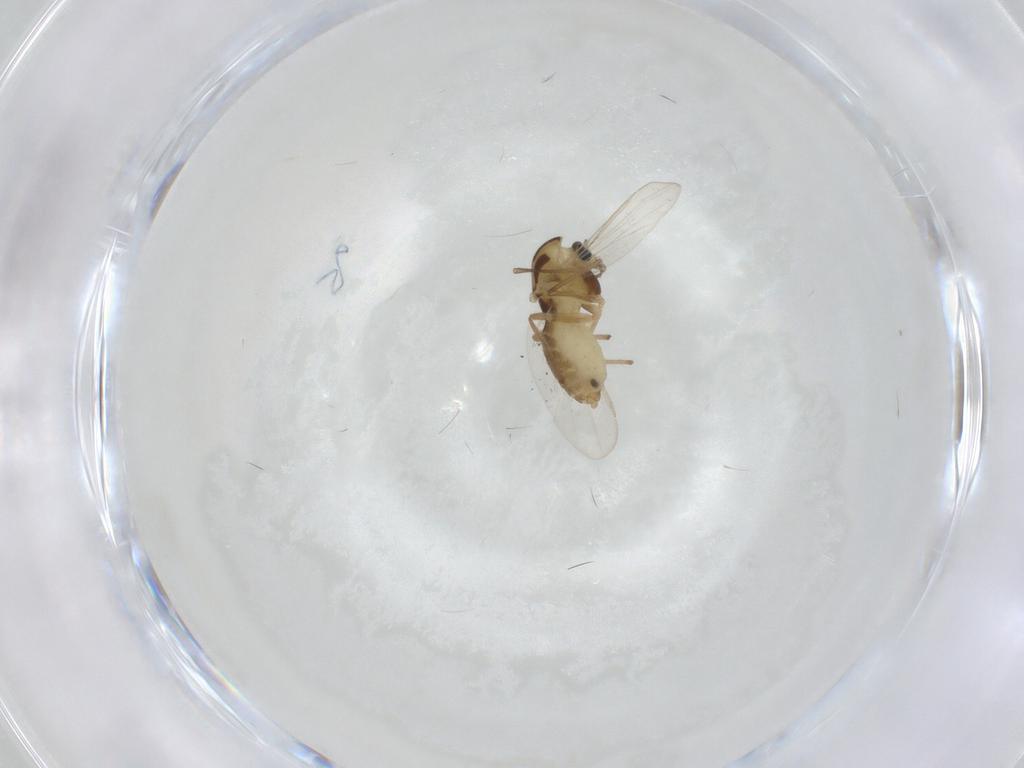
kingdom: Animalia
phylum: Arthropoda
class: Insecta
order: Diptera
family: Chironomidae
